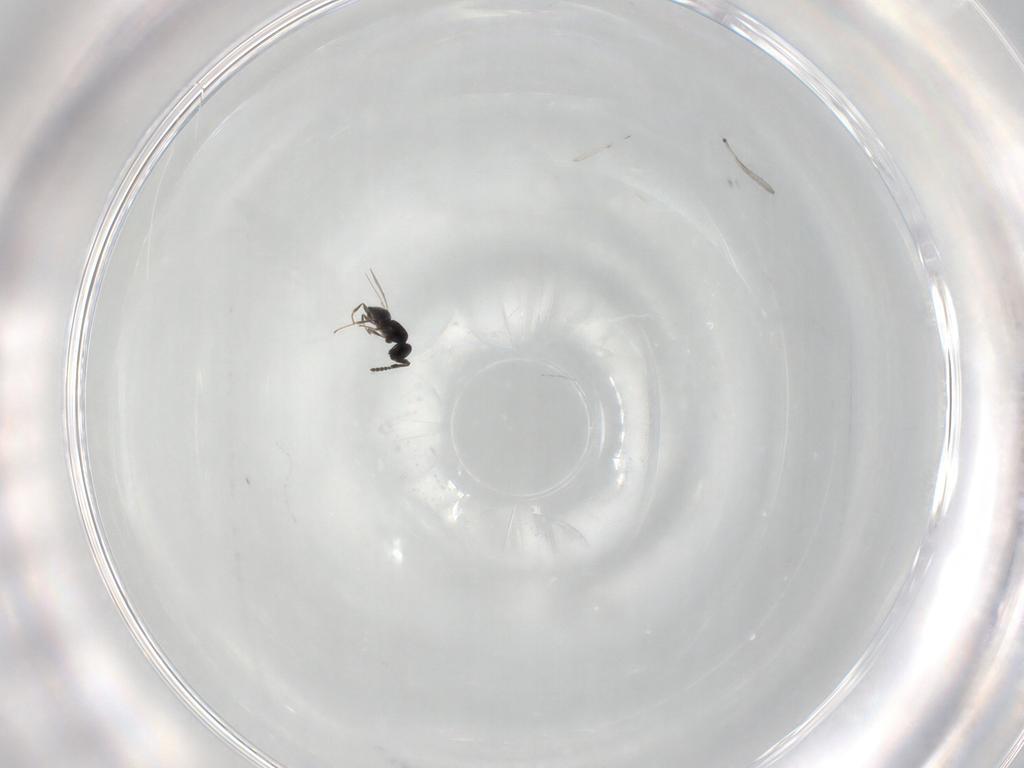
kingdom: Animalia
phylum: Arthropoda
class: Insecta
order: Hymenoptera
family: Scelionidae
